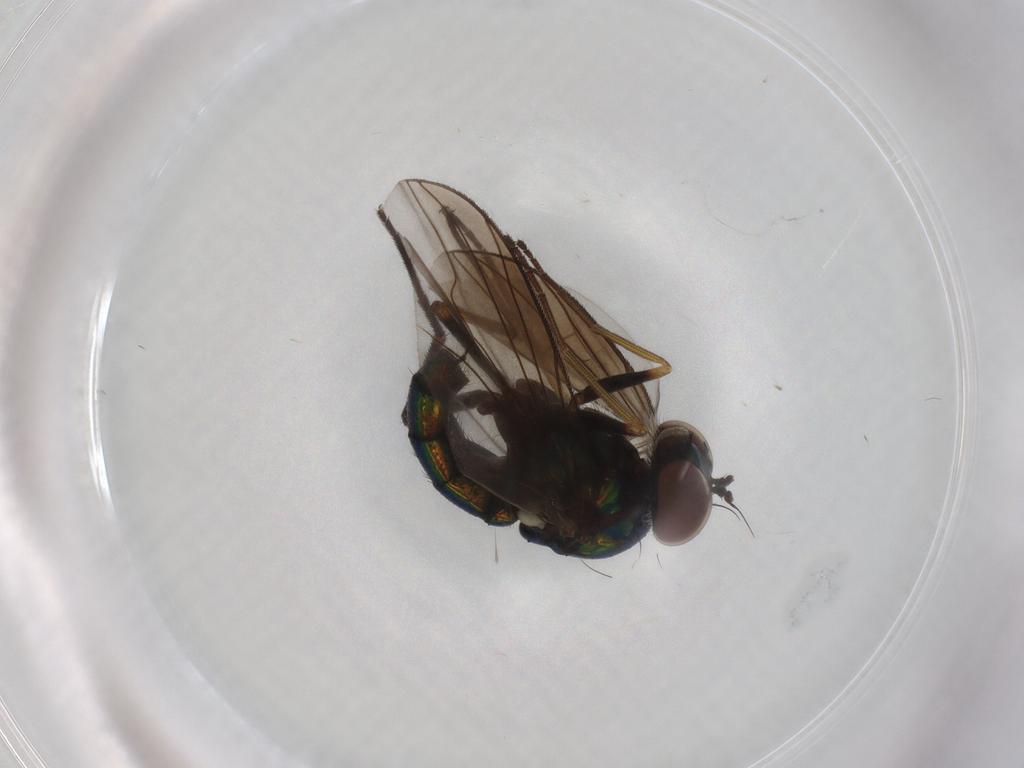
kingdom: Animalia
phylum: Arthropoda
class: Insecta
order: Diptera
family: Dolichopodidae
